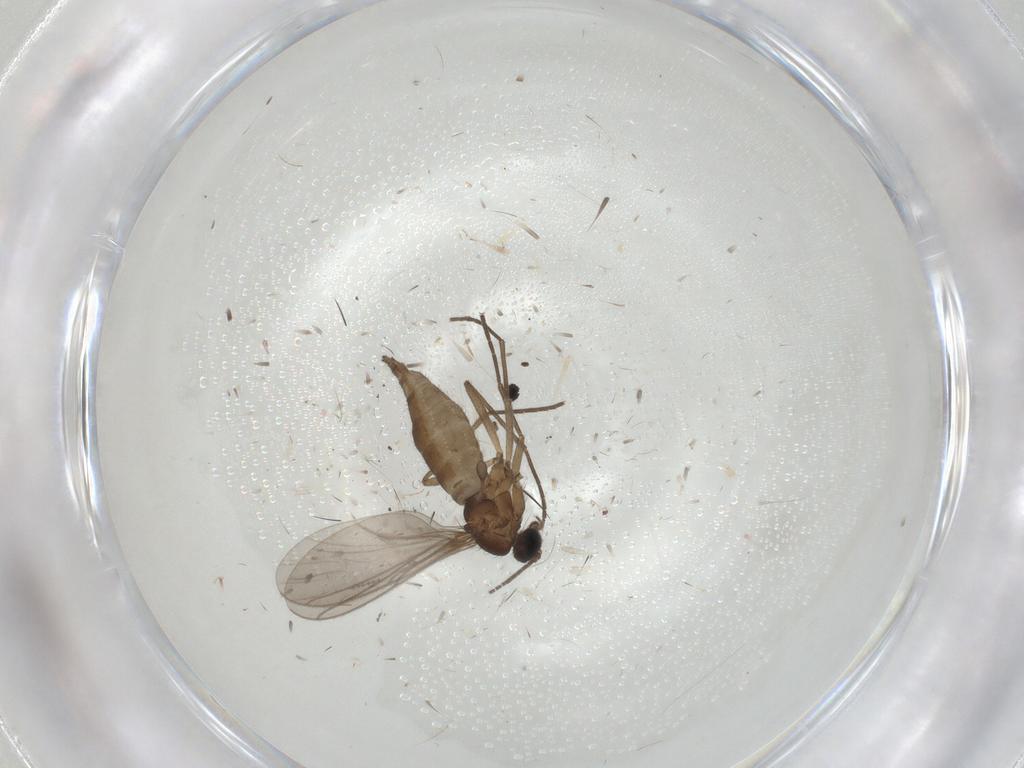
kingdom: Animalia
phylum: Arthropoda
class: Insecta
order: Diptera
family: Sciaridae
